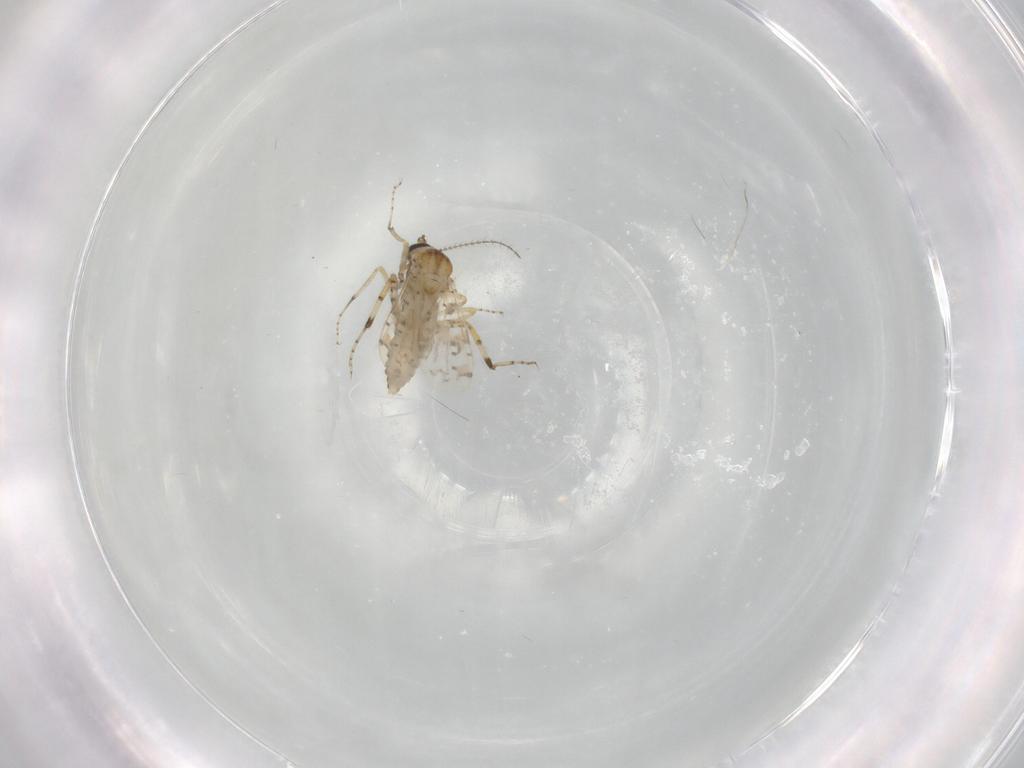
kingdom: Animalia
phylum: Arthropoda
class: Insecta
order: Diptera
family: Ceratopogonidae
